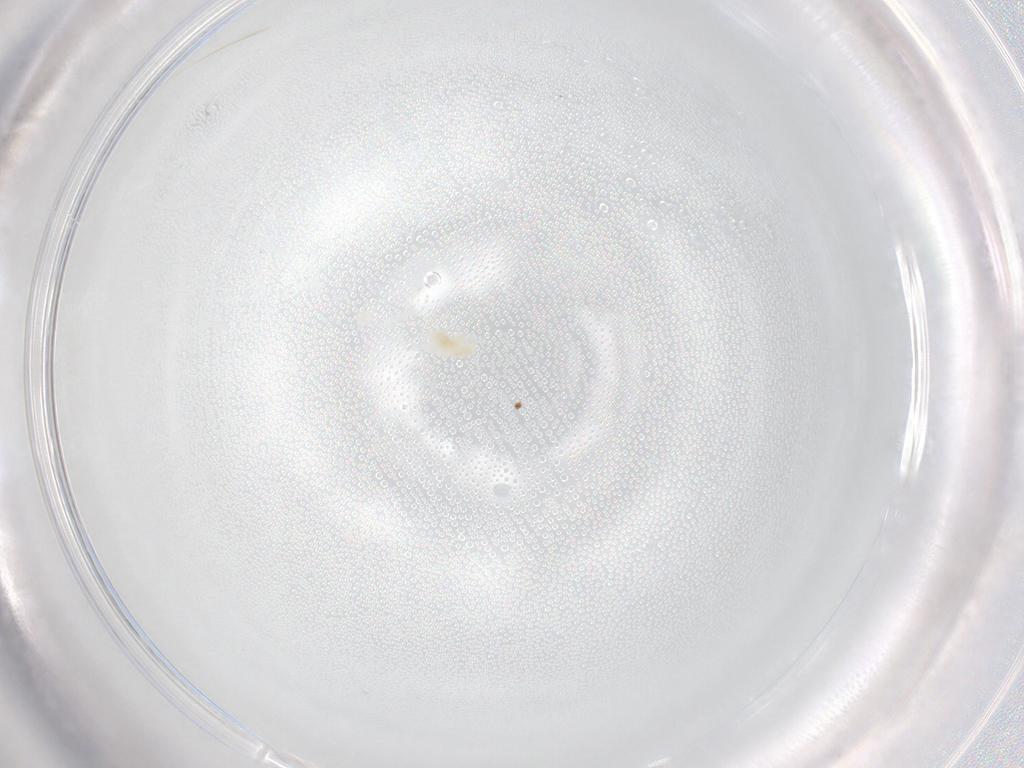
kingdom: Animalia
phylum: Arthropoda
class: Arachnida
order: Trombidiformes
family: Eupodidae
